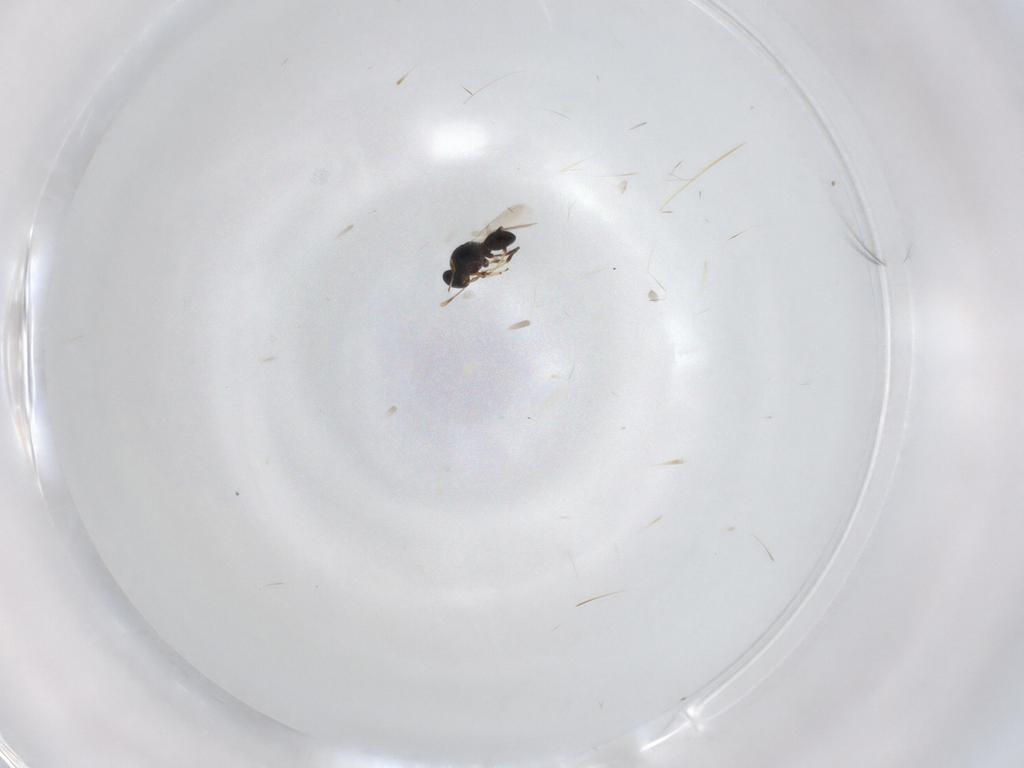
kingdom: Animalia
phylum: Arthropoda
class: Insecta
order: Hymenoptera
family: Platygastridae
